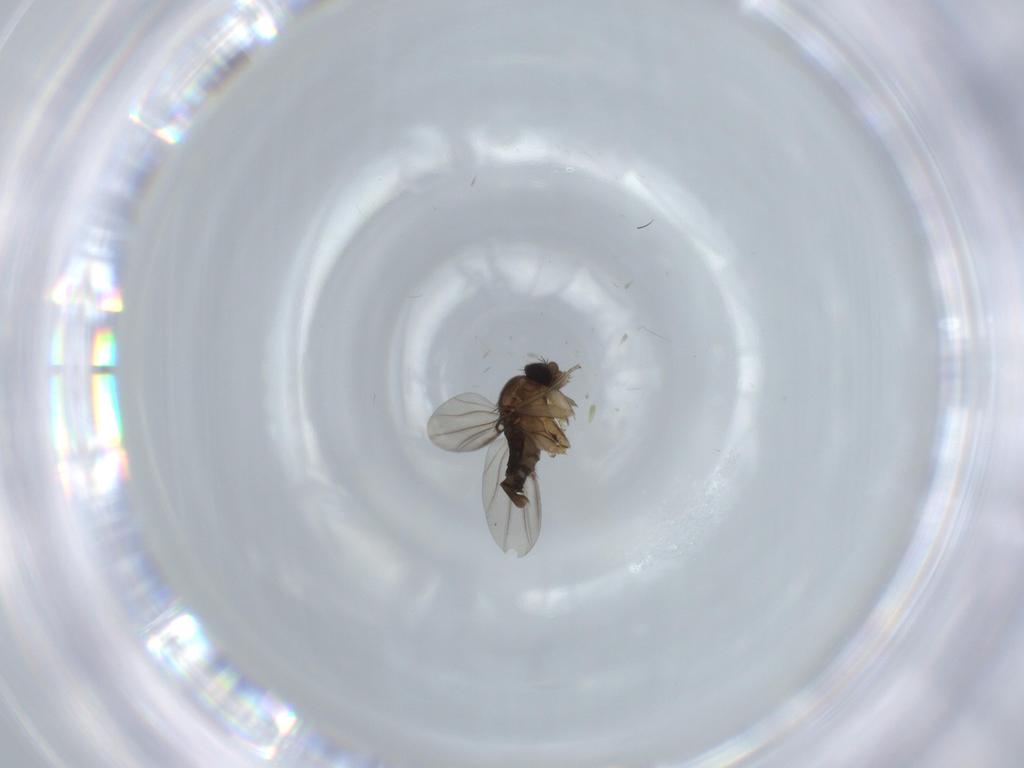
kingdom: Animalia
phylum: Arthropoda
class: Insecta
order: Diptera
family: Phoridae
